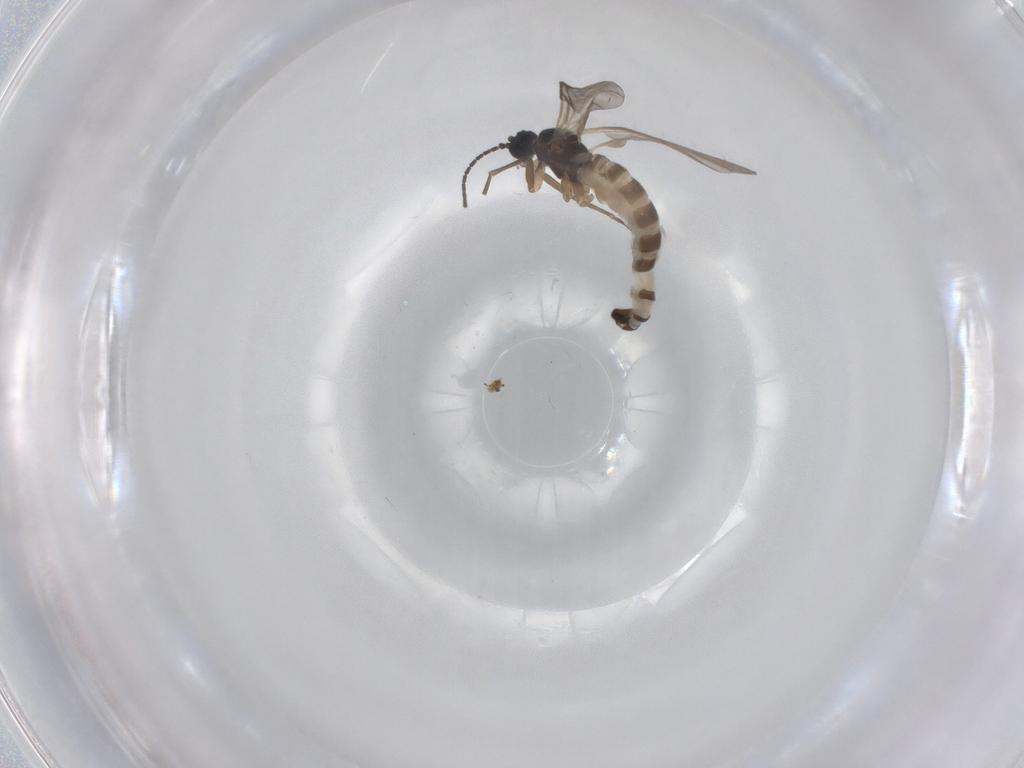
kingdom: Animalia
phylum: Arthropoda
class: Insecta
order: Diptera
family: Sciaridae
